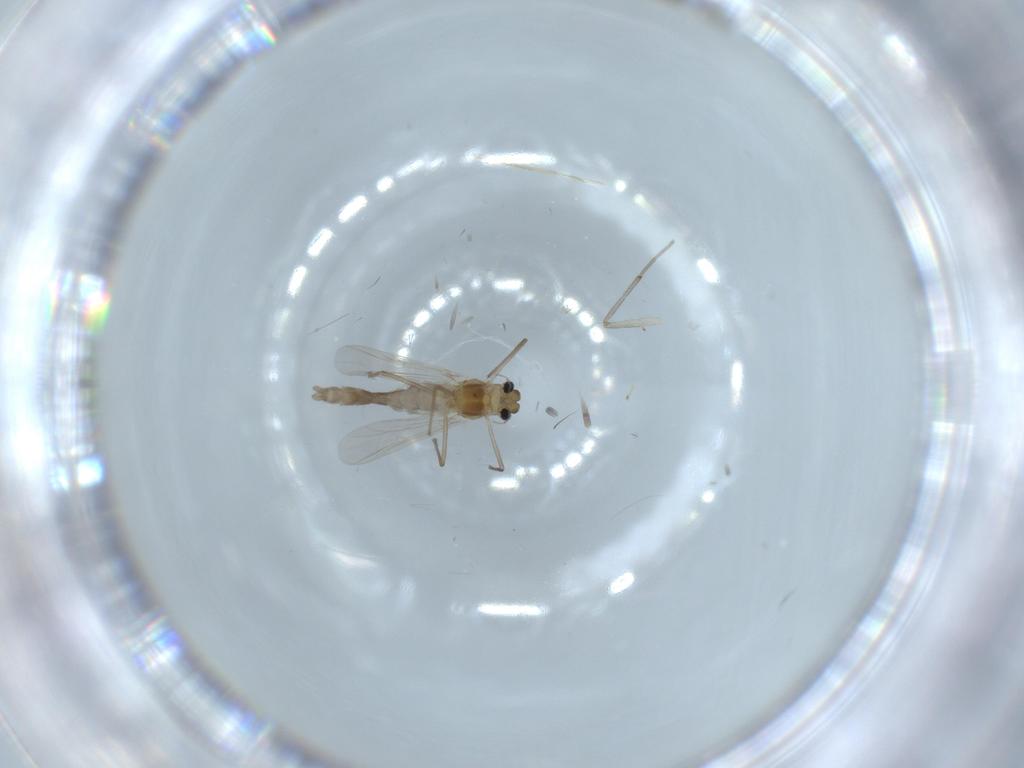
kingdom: Animalia
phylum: Arthropoda
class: Insecta
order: Diptera
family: Chironomidae
